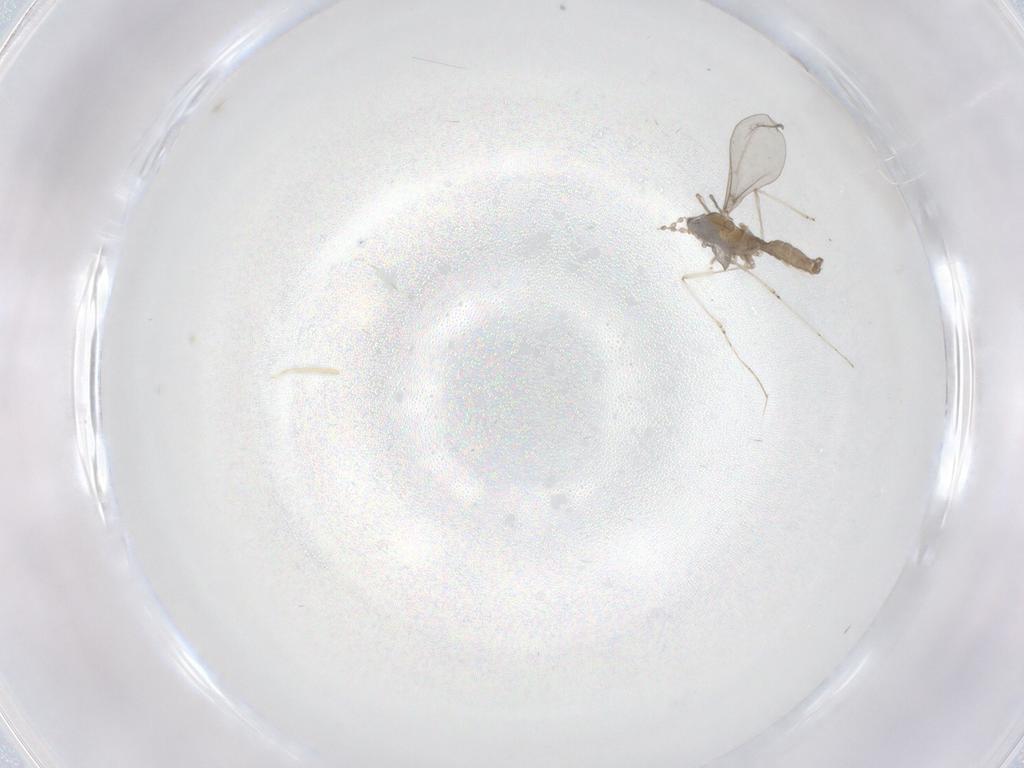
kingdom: Animalia
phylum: Arthropoda
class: Insecta
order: Diptera
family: Phoridae
